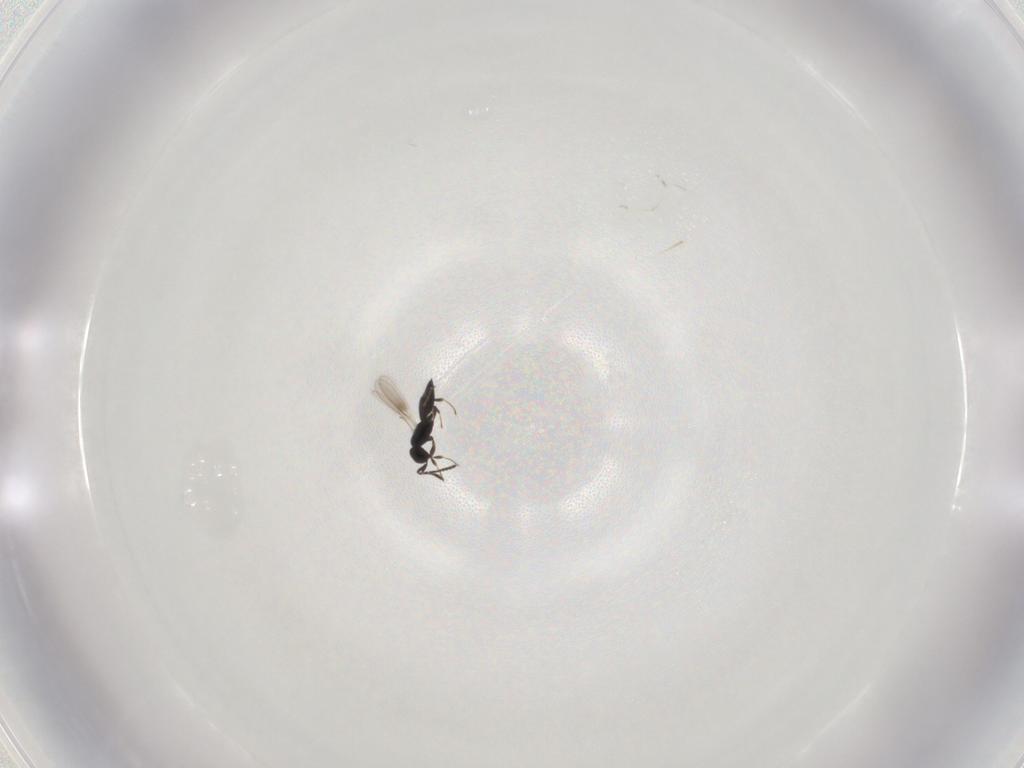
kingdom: Animalia
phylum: Arthropoda
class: Insecta
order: Hymenoptera
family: Scelionidae
